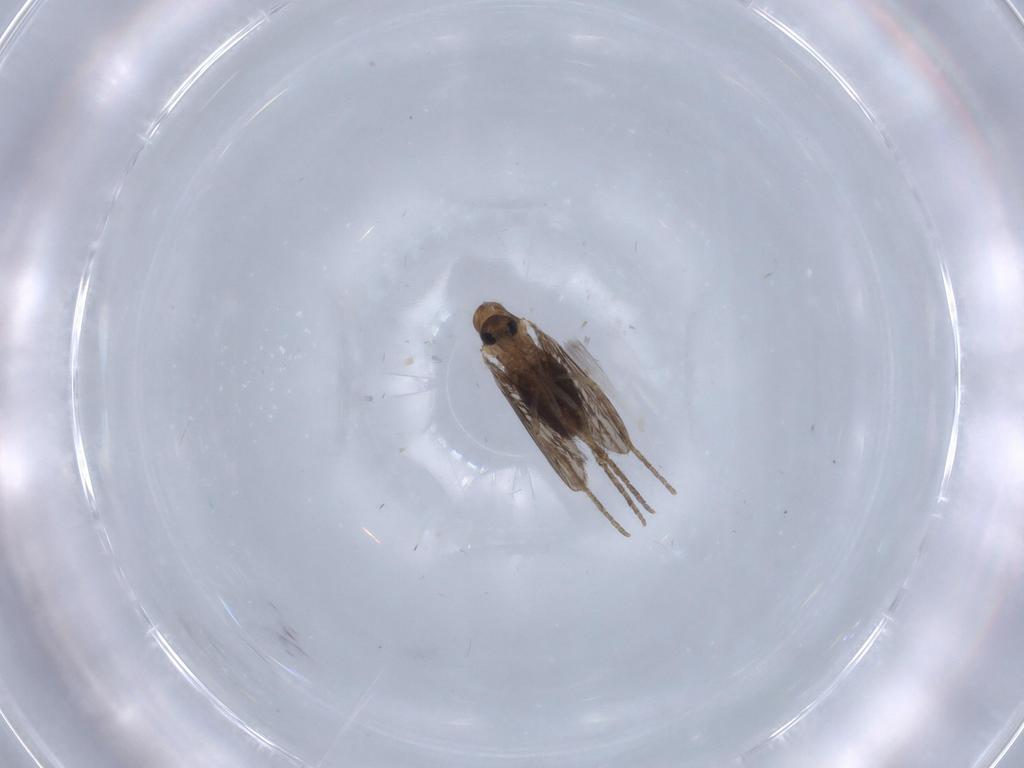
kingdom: Animalia
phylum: Arthropoda
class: Insecta
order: Diptera
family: Cecidomyiidae
